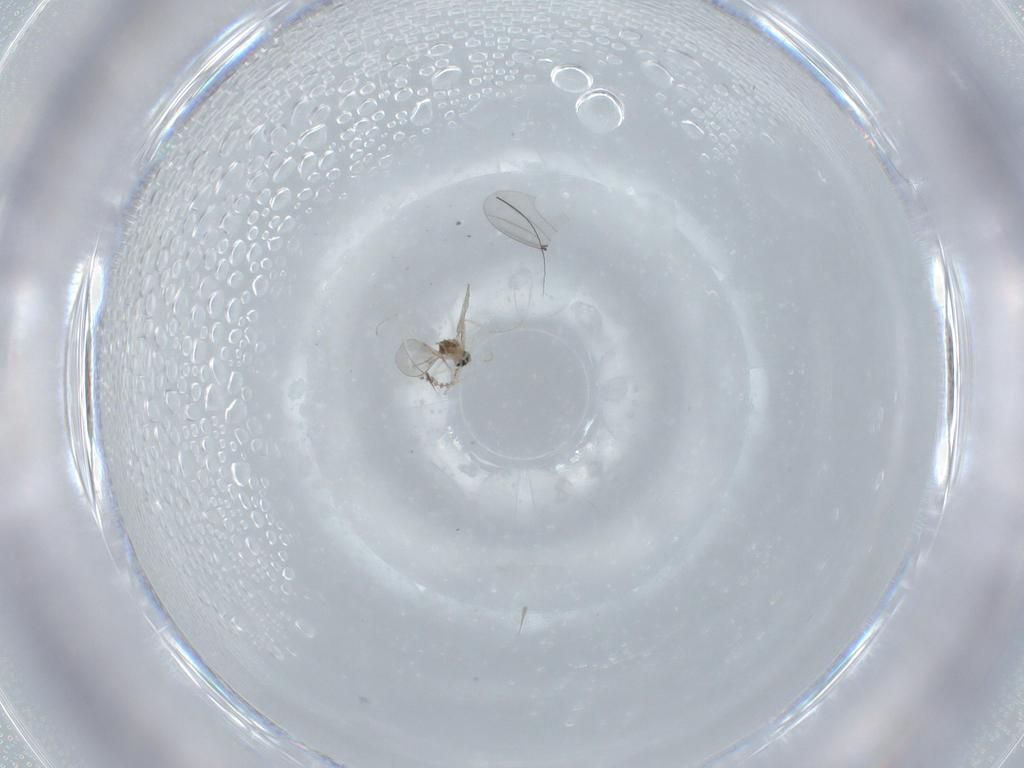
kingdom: Animalia
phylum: Arthropoda
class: Insecta
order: Diptera
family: Cecidomyiidae
